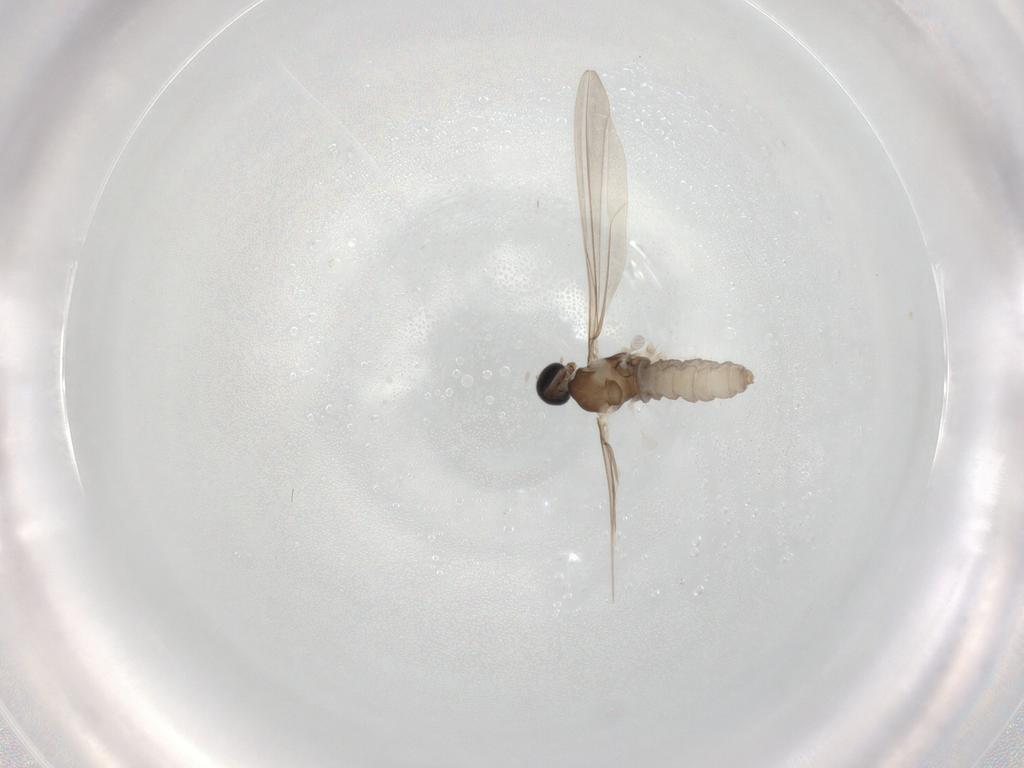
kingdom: Animalia
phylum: Arthropoda
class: Insecta
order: Diptera
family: Cecidomyiidae
